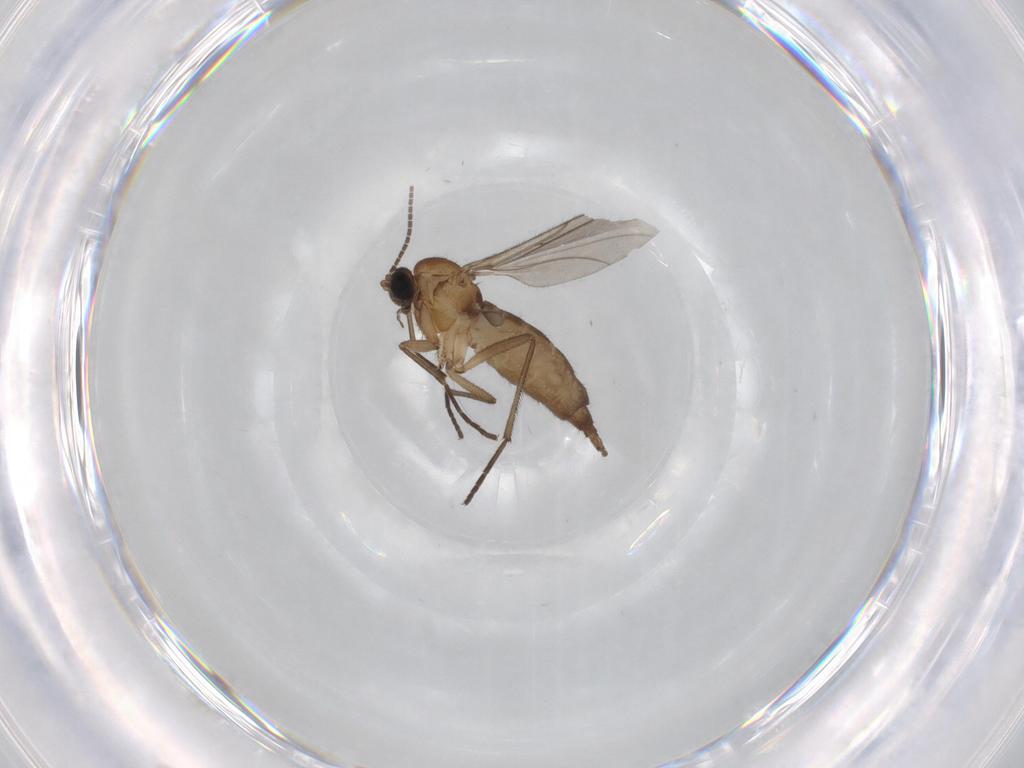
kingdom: Animalia
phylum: Arthropoda
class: Insecta
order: Diptera
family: Sciaridae
